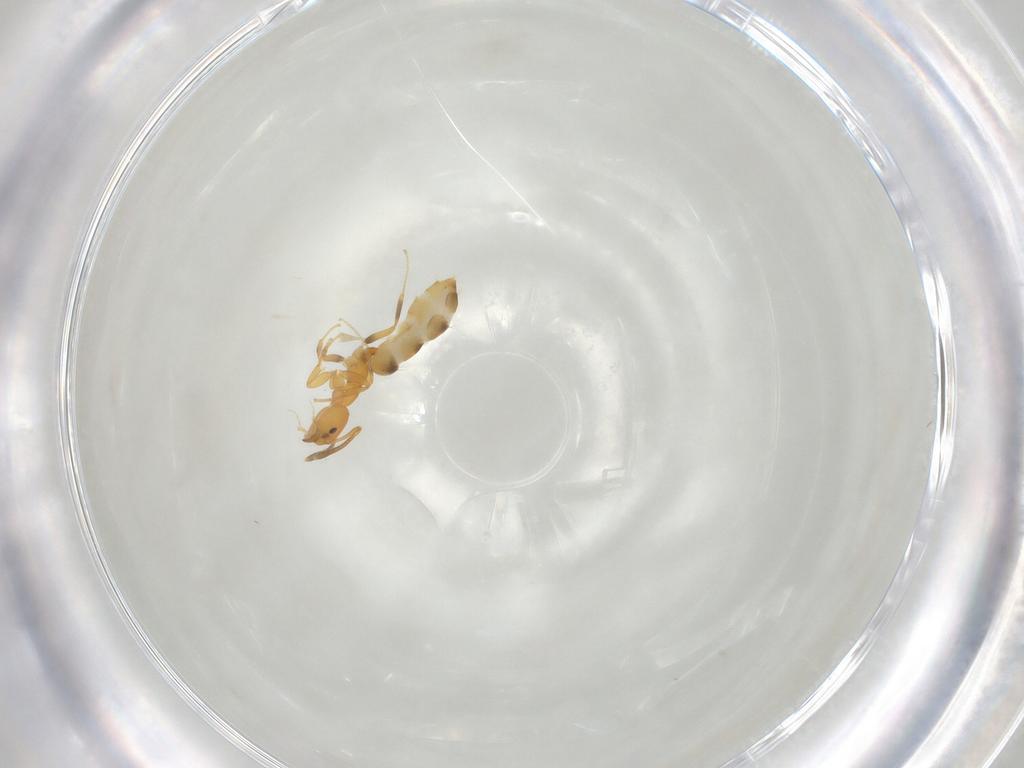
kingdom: Animalia
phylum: Arthropoda
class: Insecta
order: Hymenoptera
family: Formicidae
